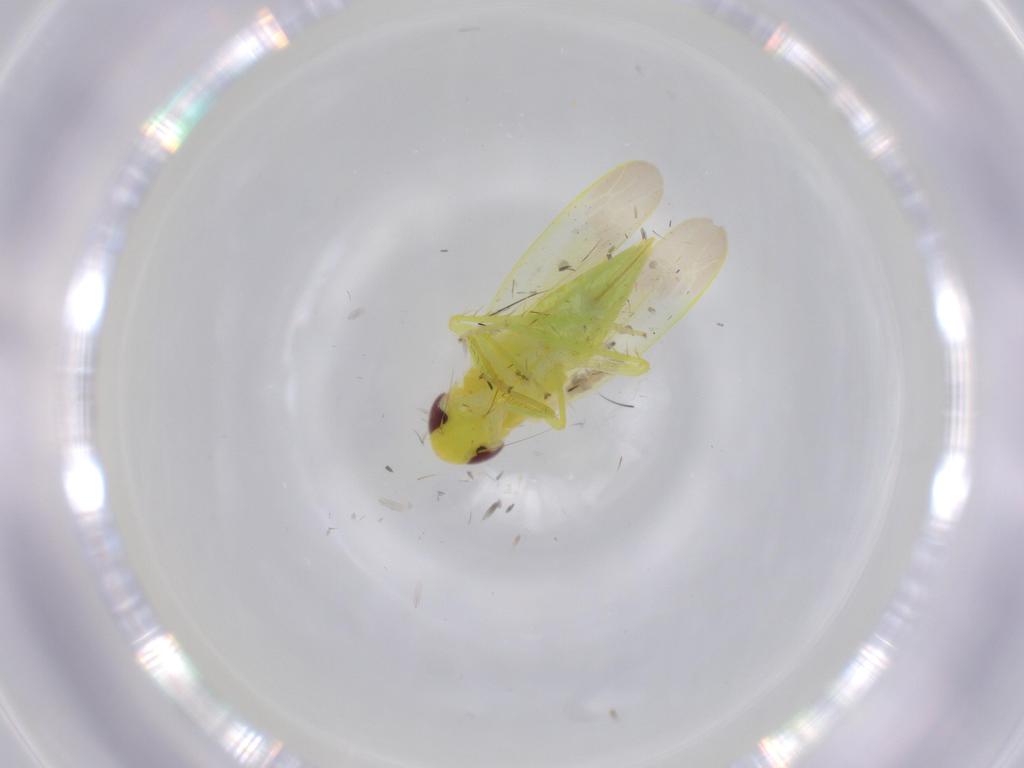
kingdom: Animalia
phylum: Arthropoda
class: Insecta
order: Hemiptera
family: Cicadellidae
